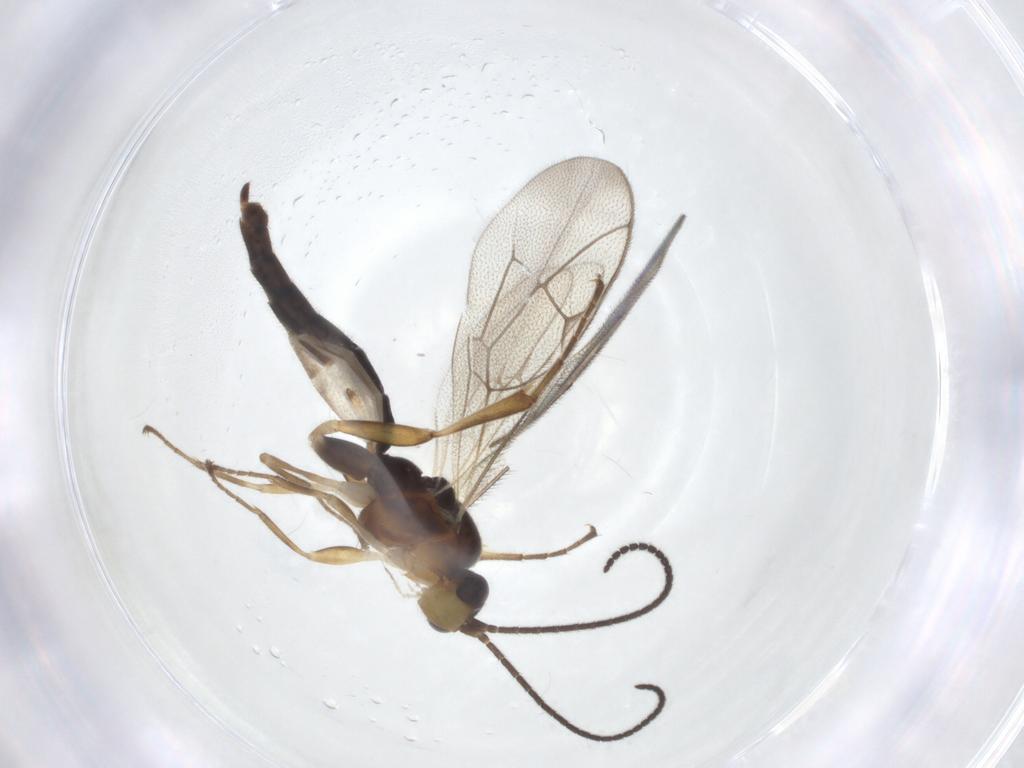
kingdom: Animalia
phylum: Arthropoda
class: Insecta
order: Hymenoptera
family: Ichneumonidae
